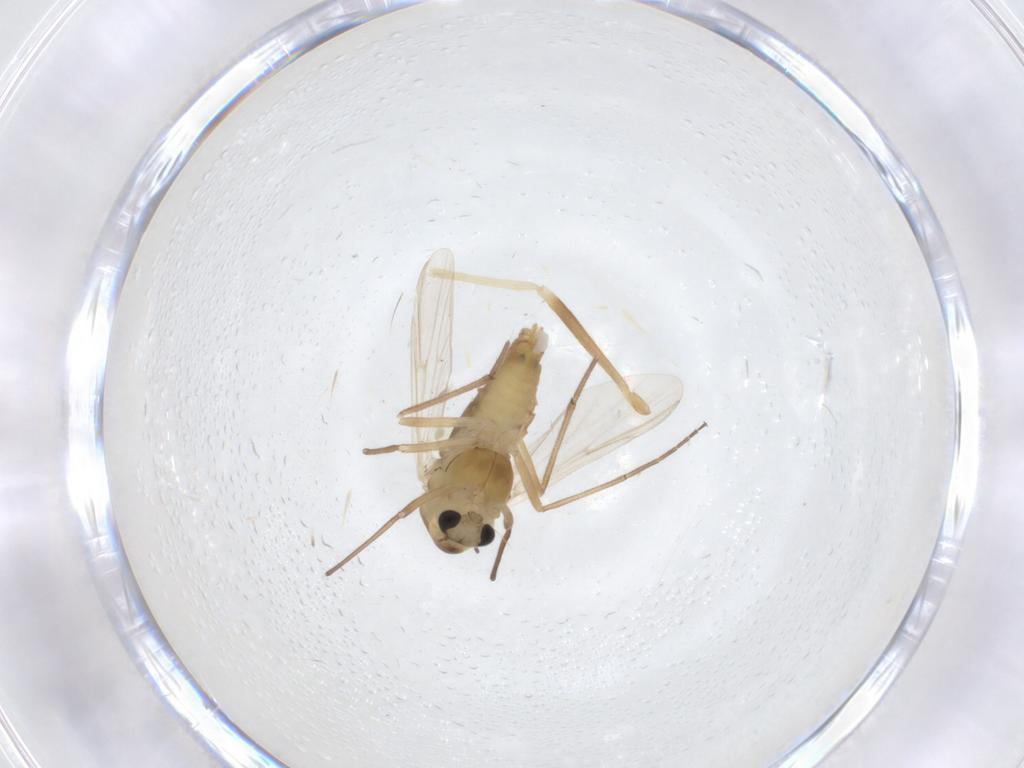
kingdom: Animalia
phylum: Arthropoda
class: Insecta
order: Diptera
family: Chironomidae
